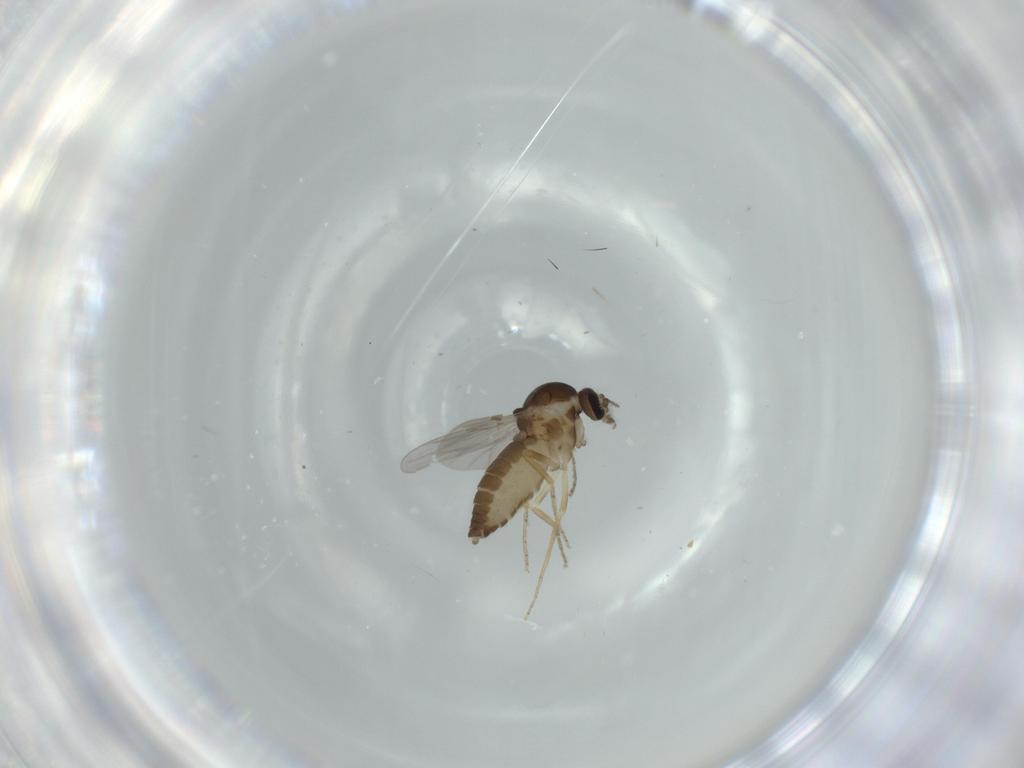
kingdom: Animalia
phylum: Arthropoda
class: Insecta
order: Diptera
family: Ceratopogonidae
